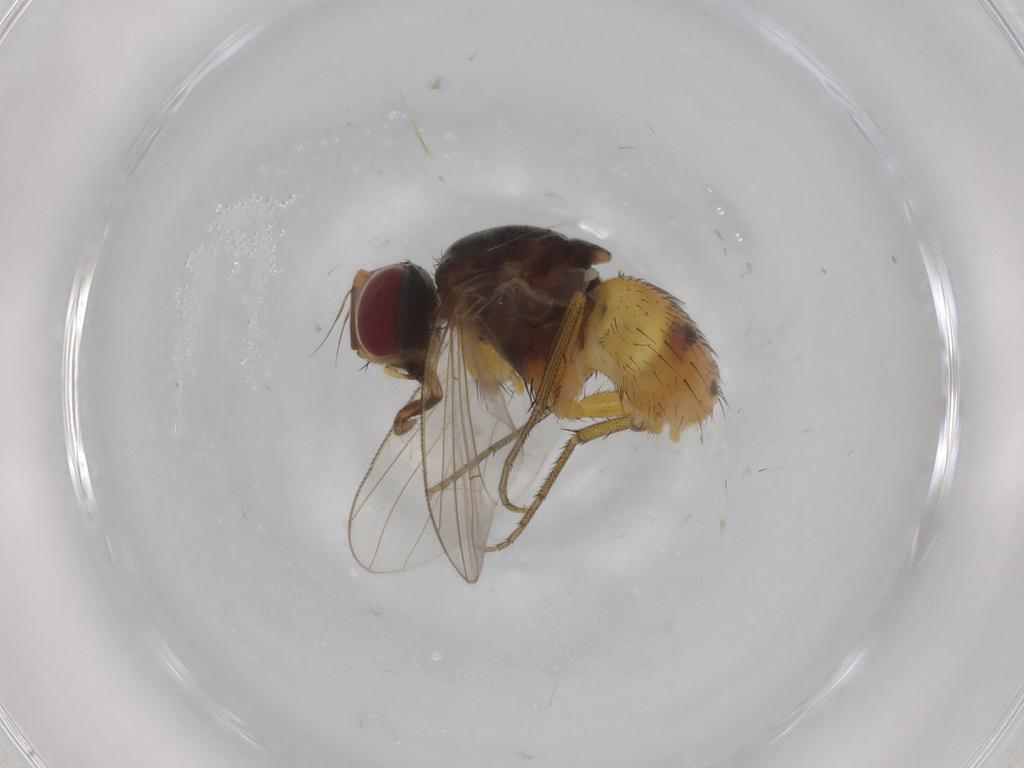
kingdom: Animalia
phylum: Arthropoda
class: Insecta
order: Diptera
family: Muscidae
